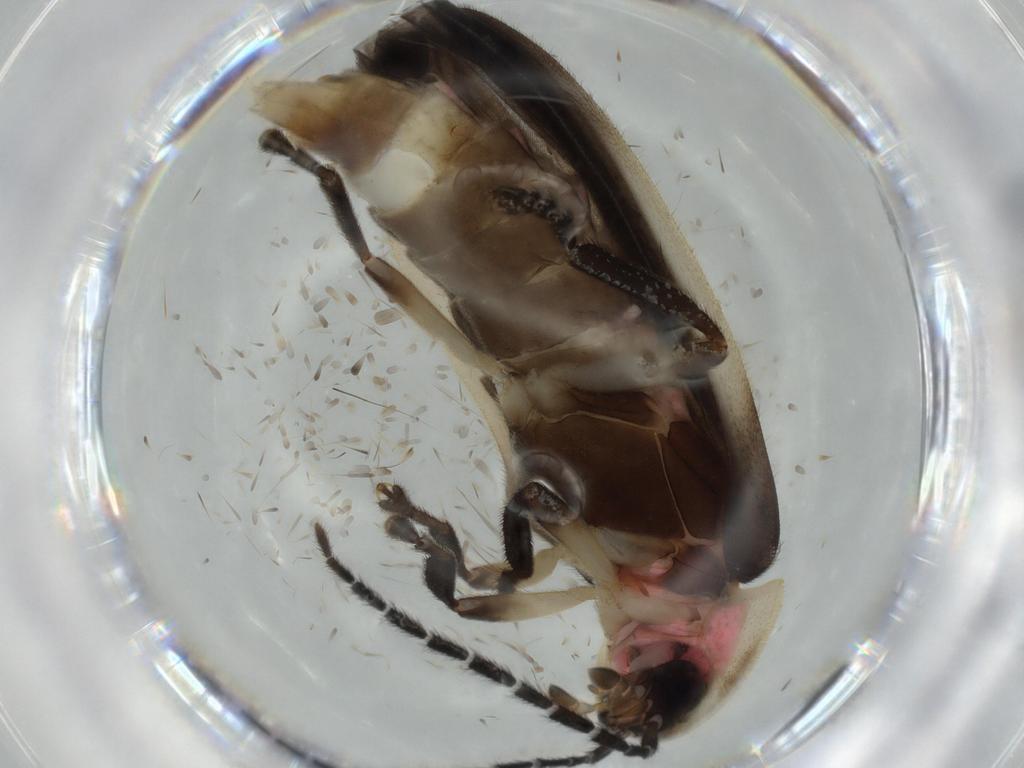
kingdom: Animalia
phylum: Arthropoda
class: Insecta
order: Coleoptera
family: Lampyridae
